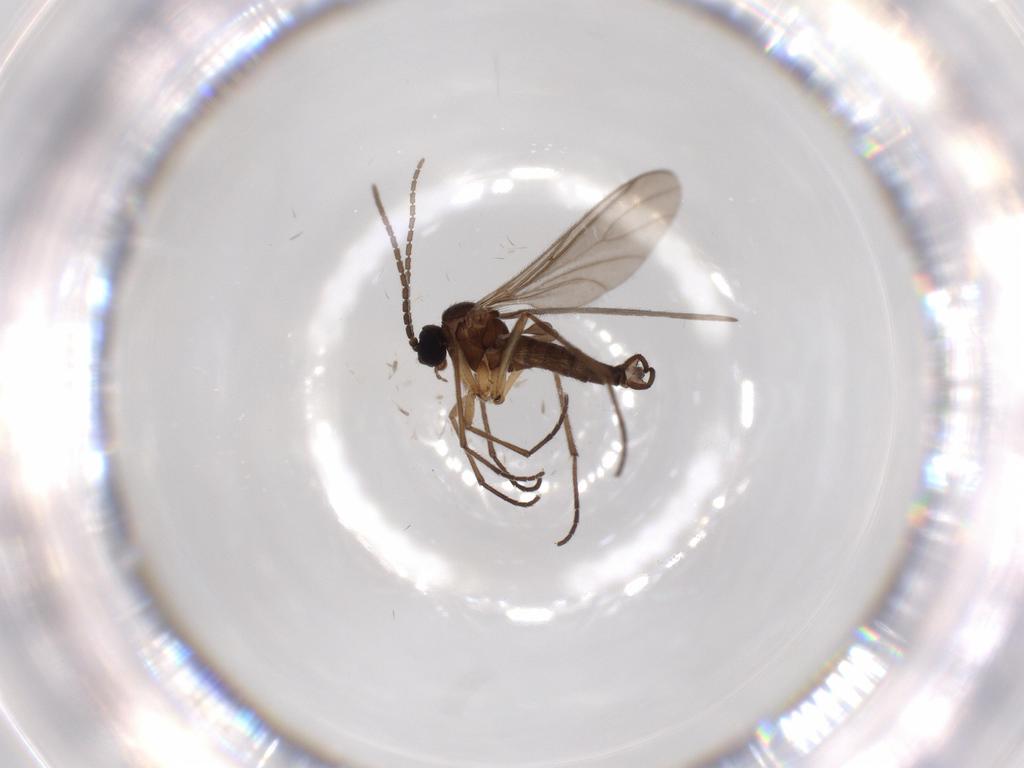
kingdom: Animalia
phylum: Arthropoda
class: Insecta
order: Diptera
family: Sciaridae
